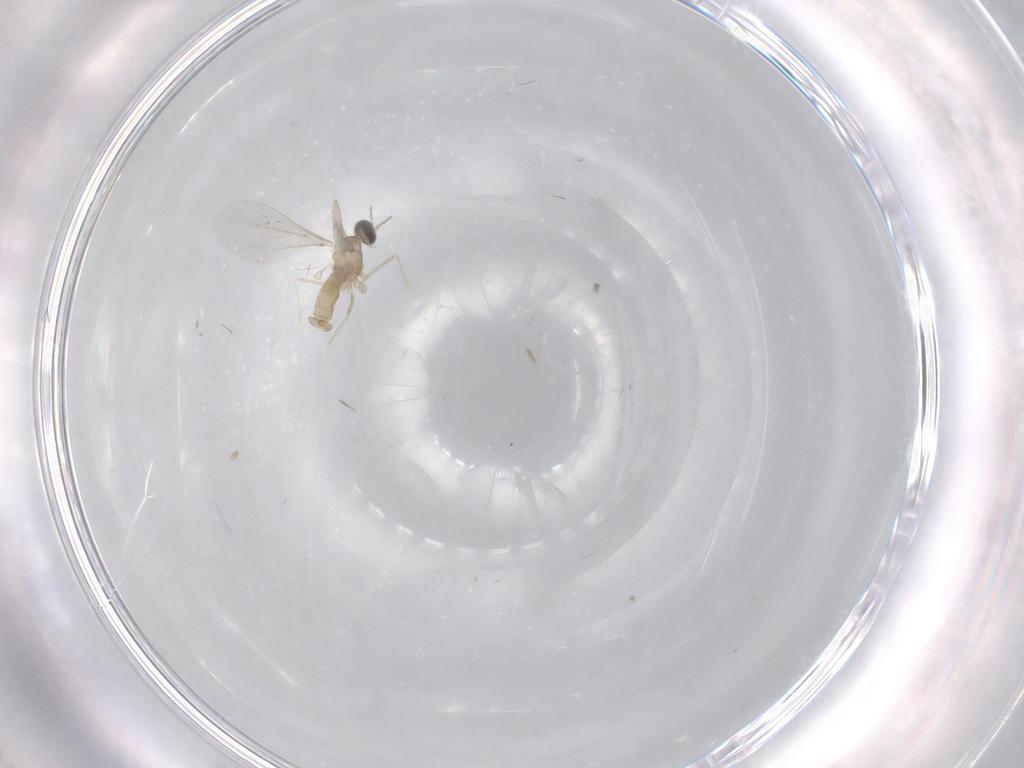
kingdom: Animalia
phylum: Arthropoda
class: Insecta
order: Diptera
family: Cecidomyiidae
